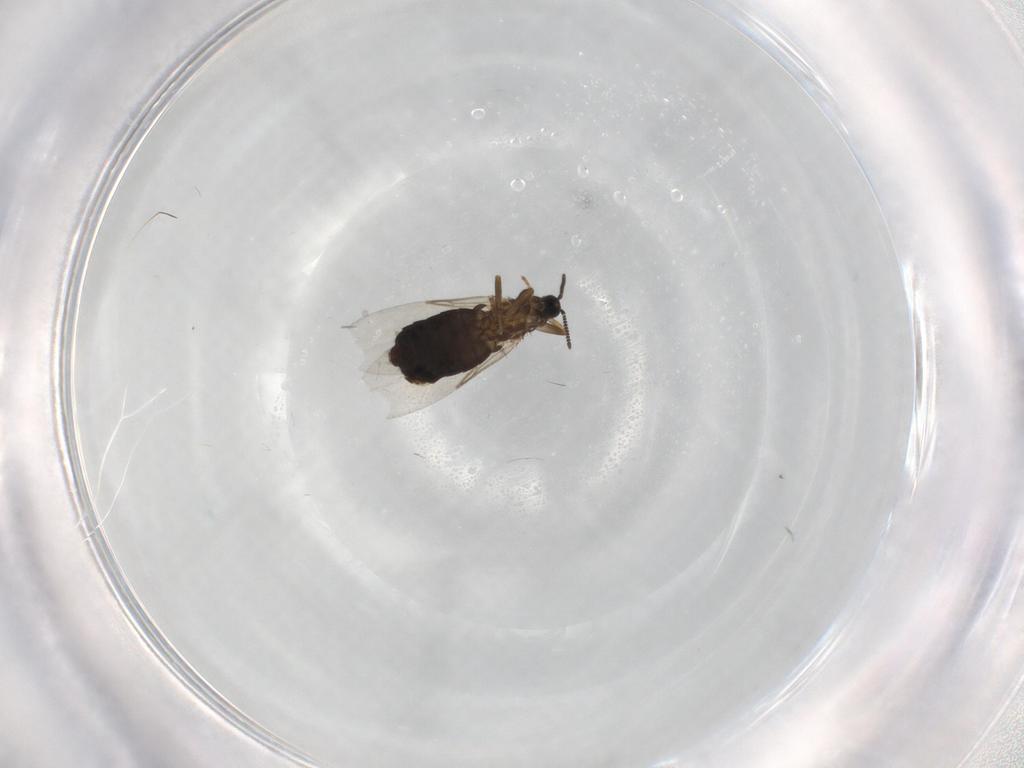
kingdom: Animalia
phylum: Arthropoda
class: Insecta
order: Diptera
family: Scatopsidae
